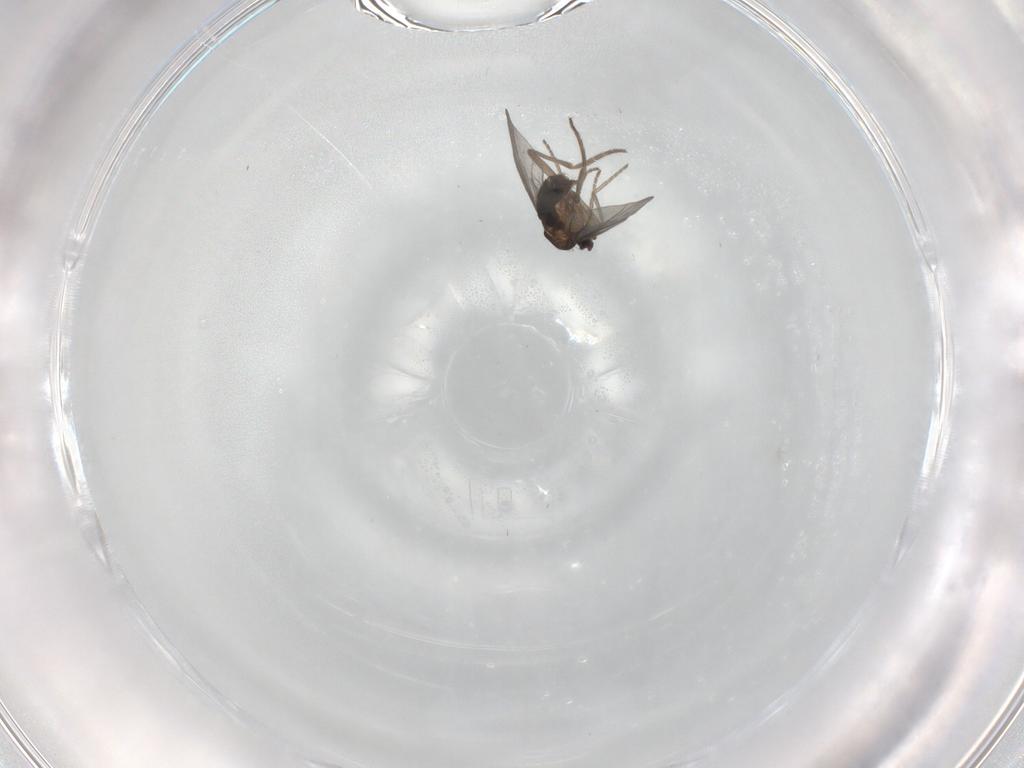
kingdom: Animalia
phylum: Arthropoda
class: Insecta
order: Diptera
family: Phoridae
